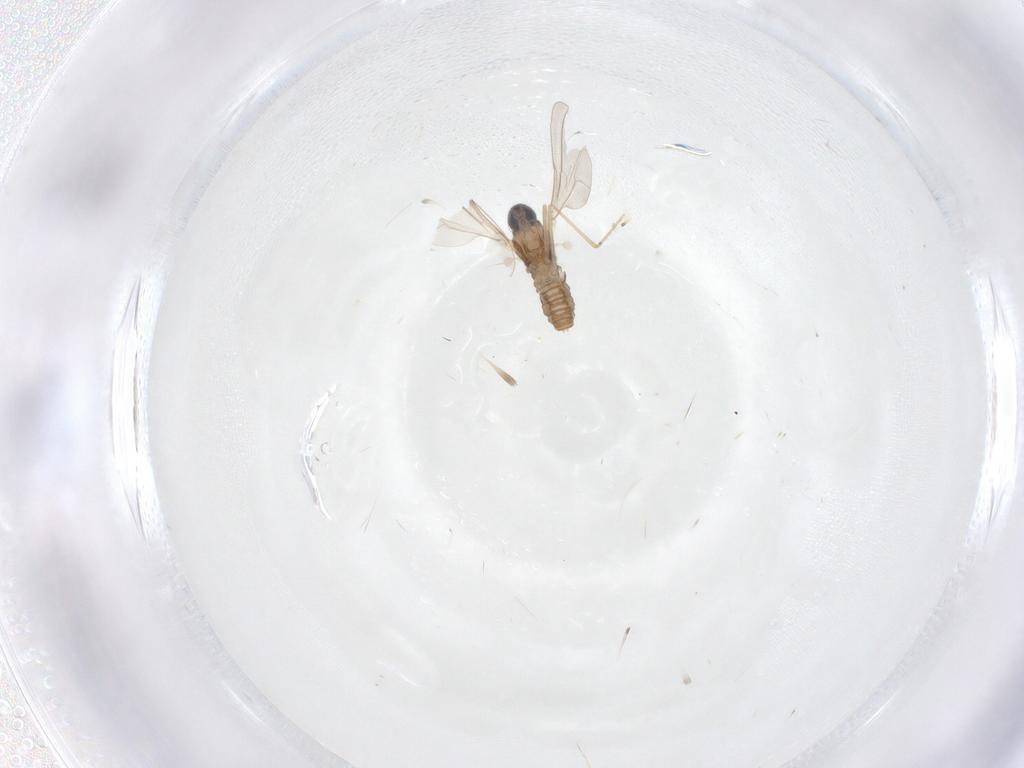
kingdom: Animalia
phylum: Arthropoda
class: Insecta
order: Diptera
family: Cecidomyiidae
